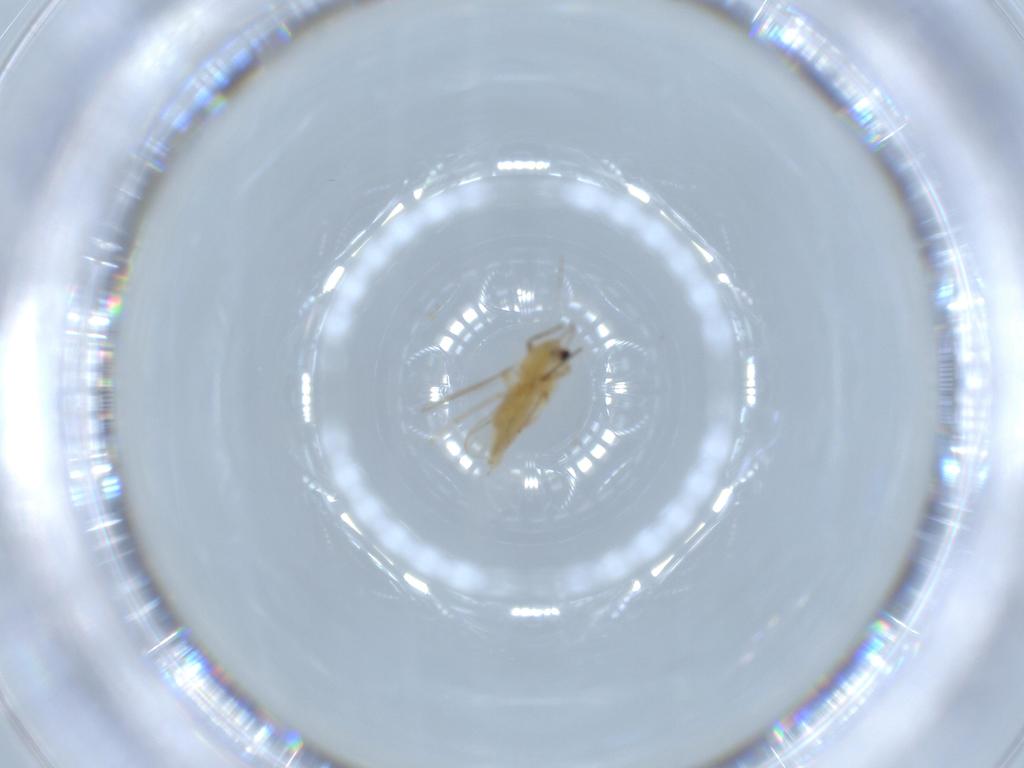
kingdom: Animalia
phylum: Arthropoda
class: Insecta
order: Diptera
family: Chironomidae
